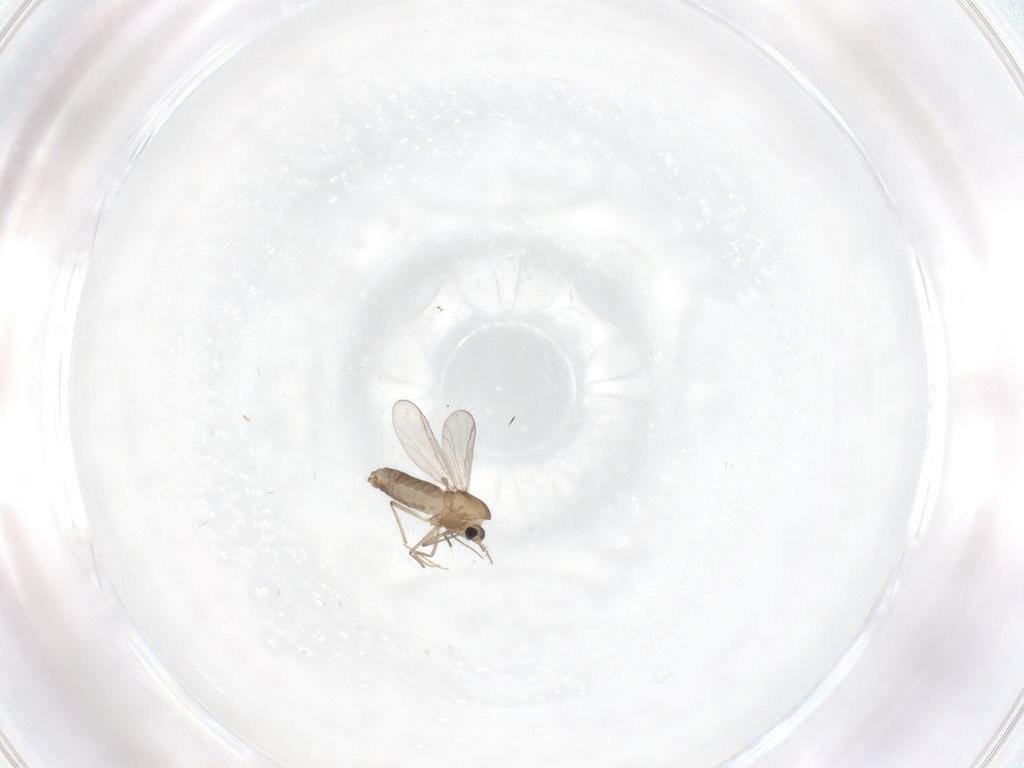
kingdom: Animalia
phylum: Arthropoda
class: Insecta
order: Diptera
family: Chironomidae
